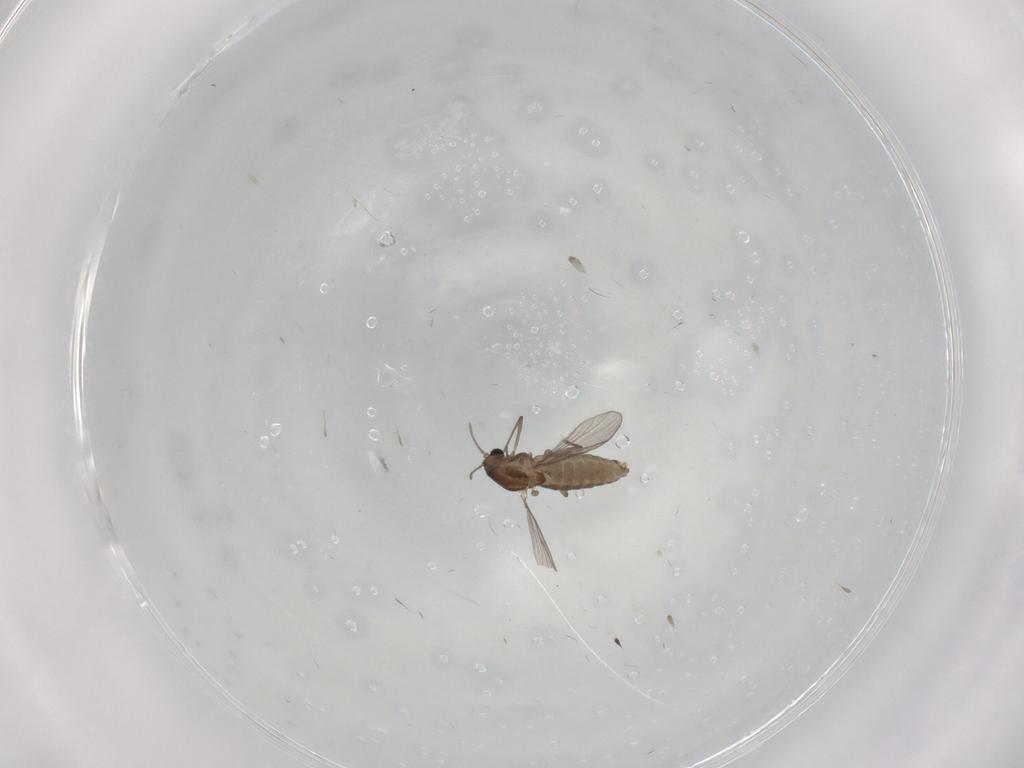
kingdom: Animalia
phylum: Arthropoda
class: Insecta
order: Diptera
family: Chironomidae
